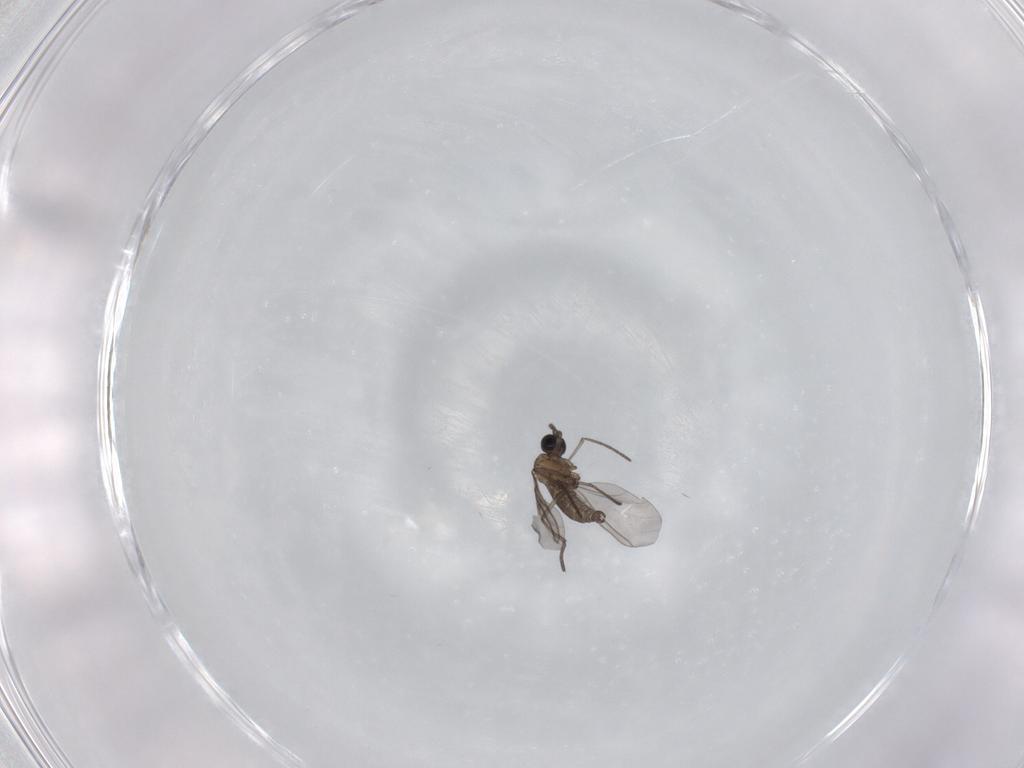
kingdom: Animalia
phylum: Arthropoda
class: Insecta
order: Diptera
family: Sciaridae
